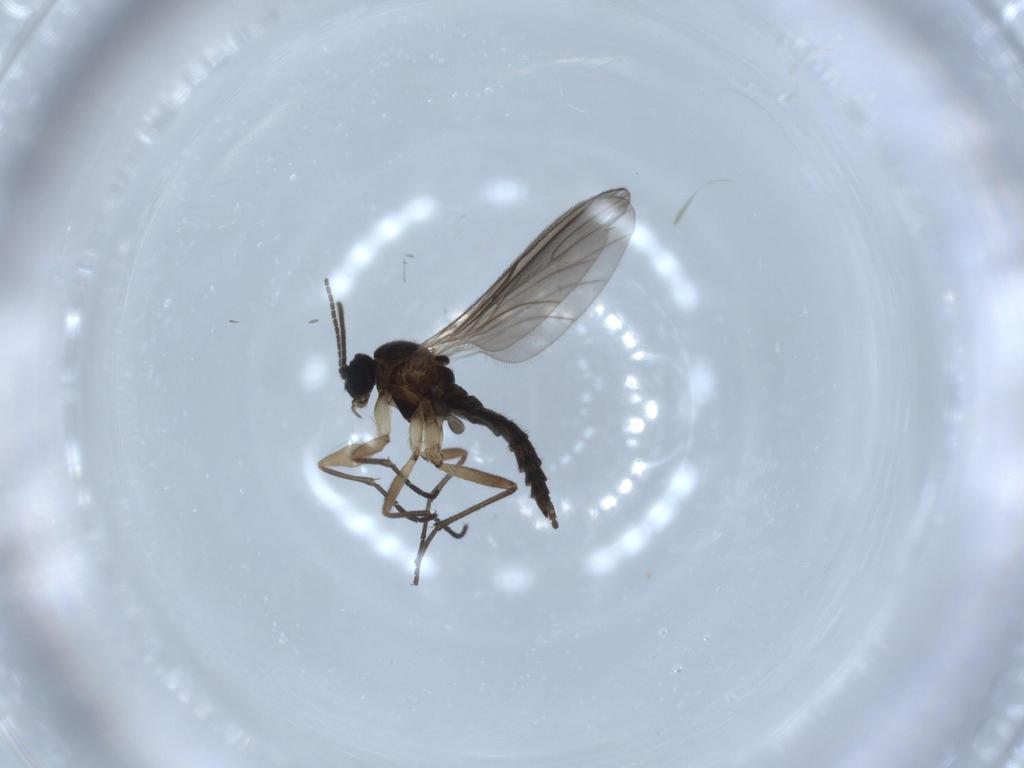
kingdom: Animalia
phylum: Arthropoda
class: Insecta
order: Diptera
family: Sciaridae
